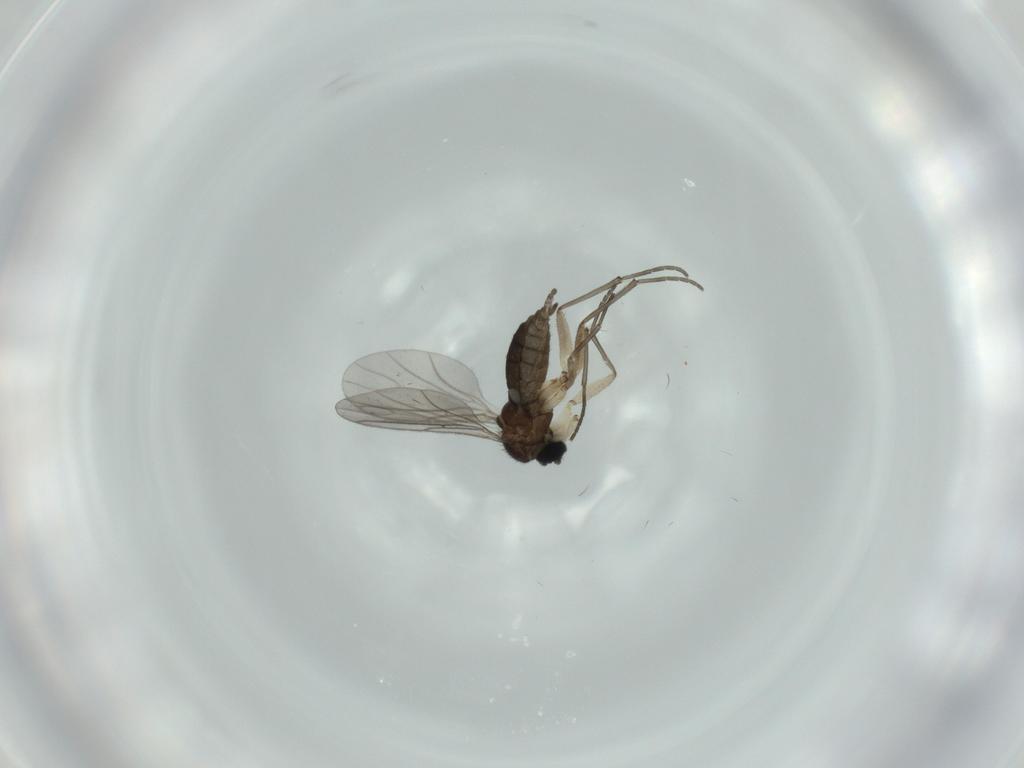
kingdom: Animalia
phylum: Arthropoda
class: Insecta
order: Diptera
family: Sciaridae
